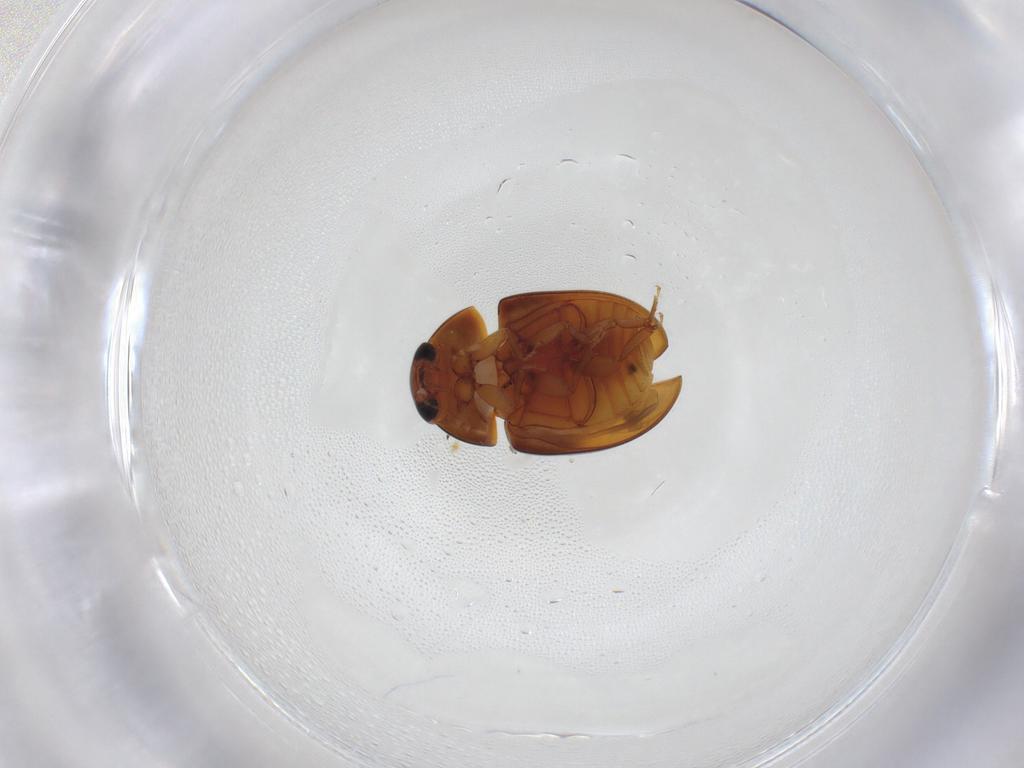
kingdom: Animalia
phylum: Arthropoda
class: Insecta
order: Coleoptera
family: Phalacridae
